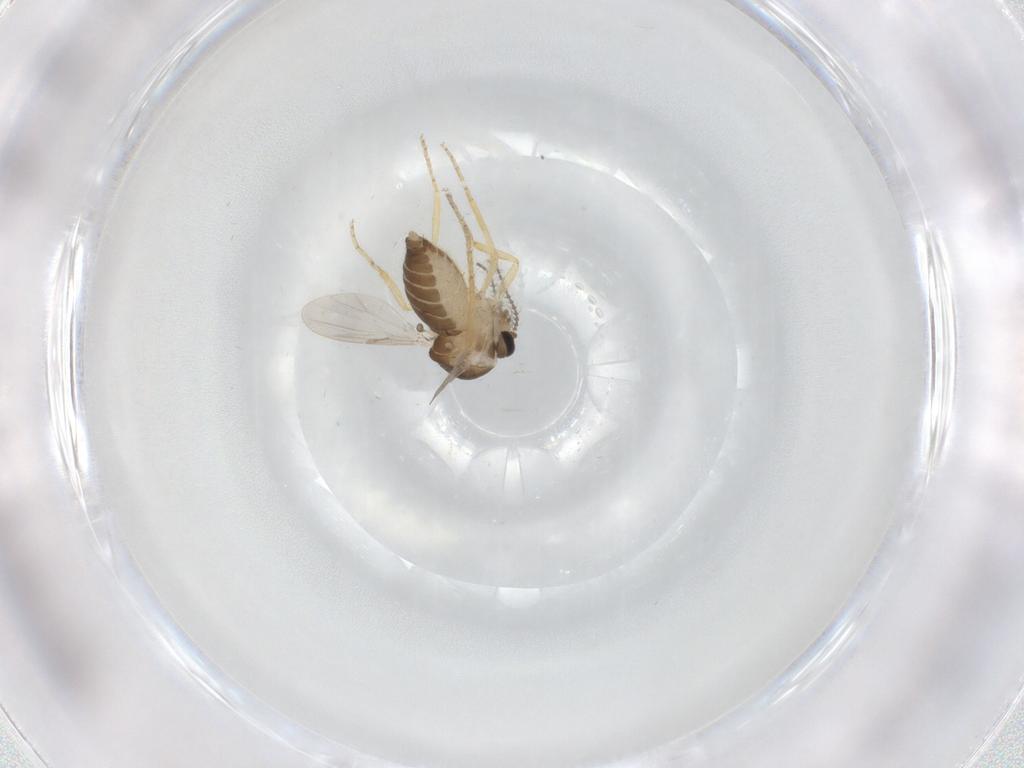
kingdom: Animalia
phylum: Arthropoda
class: Insecta
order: Diptera
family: Ceratopogonidae
